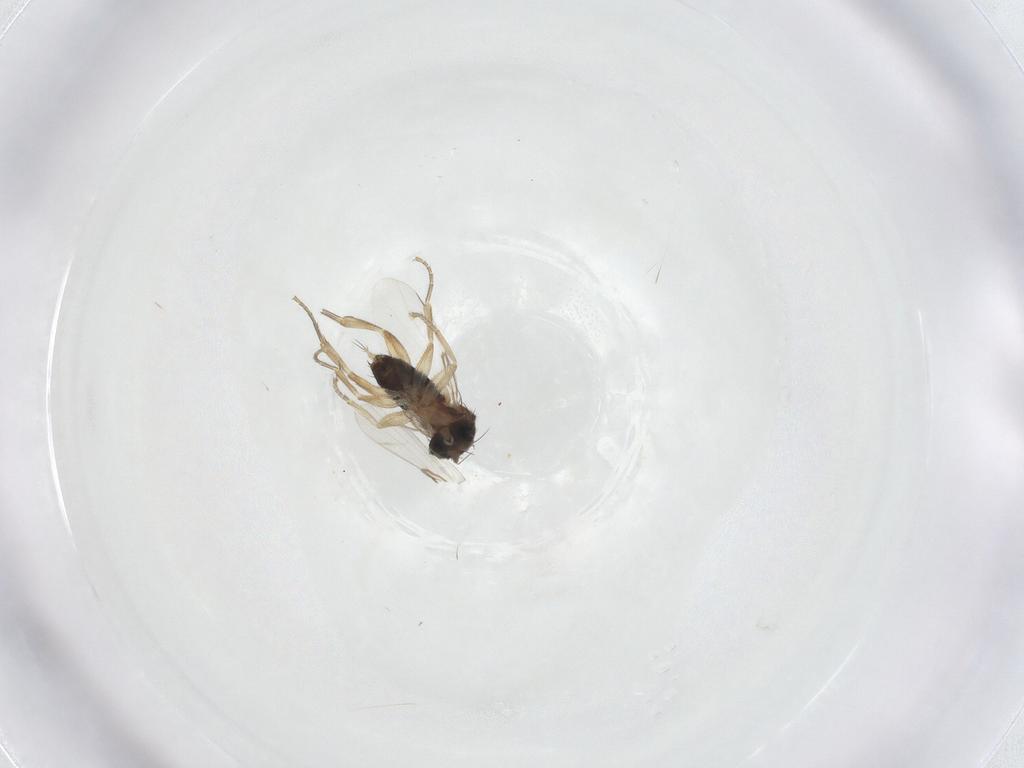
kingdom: Animalia
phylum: Arthropoda
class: Insecta
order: Diptera
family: Phoridae
